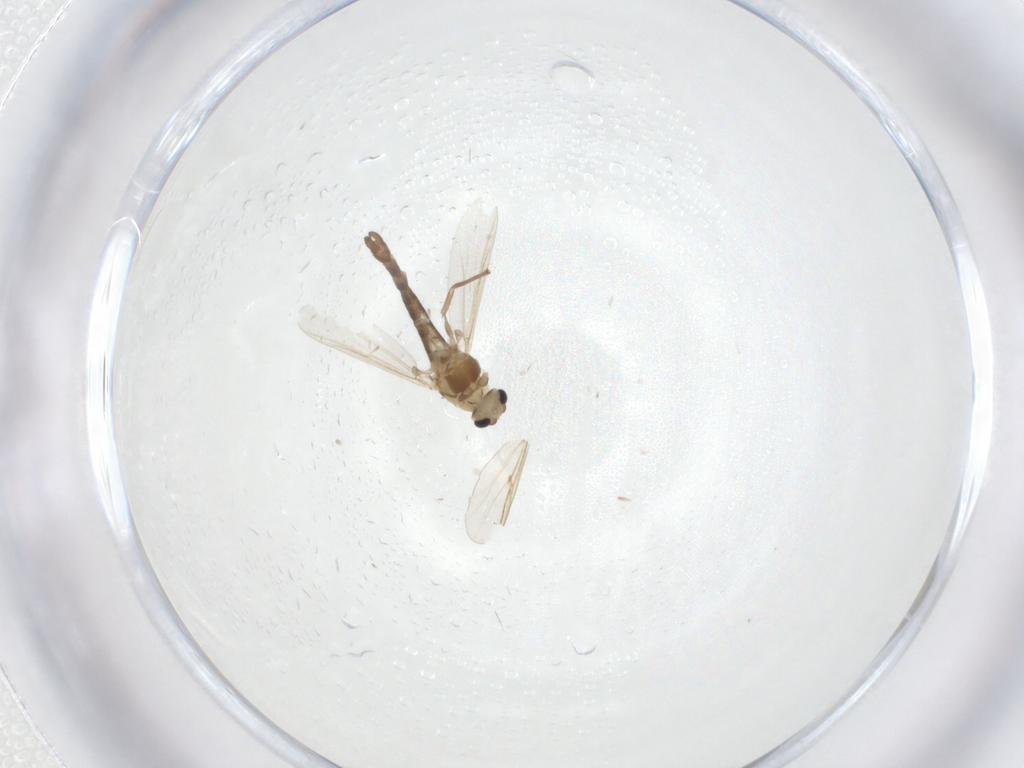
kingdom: Animalia
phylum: Arthropoda
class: Insecta
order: Diptera
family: Chironomidae
